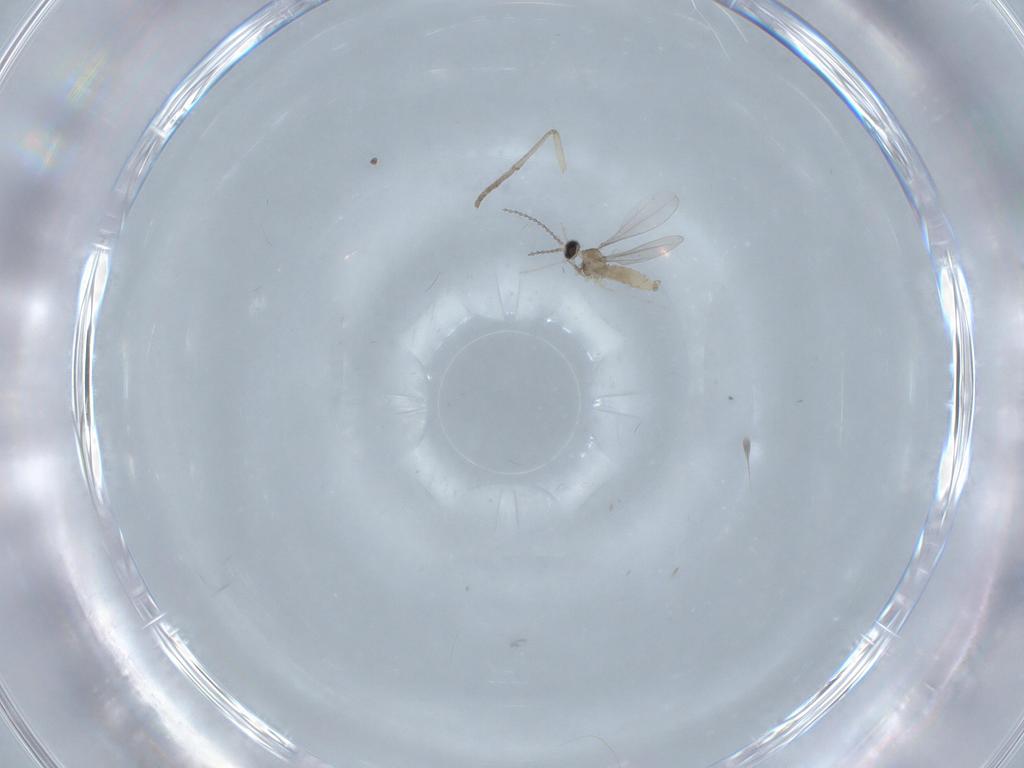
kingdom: Animalia
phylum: Arthropoda
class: Insecta
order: Diptera
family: Cecidomyiidae
